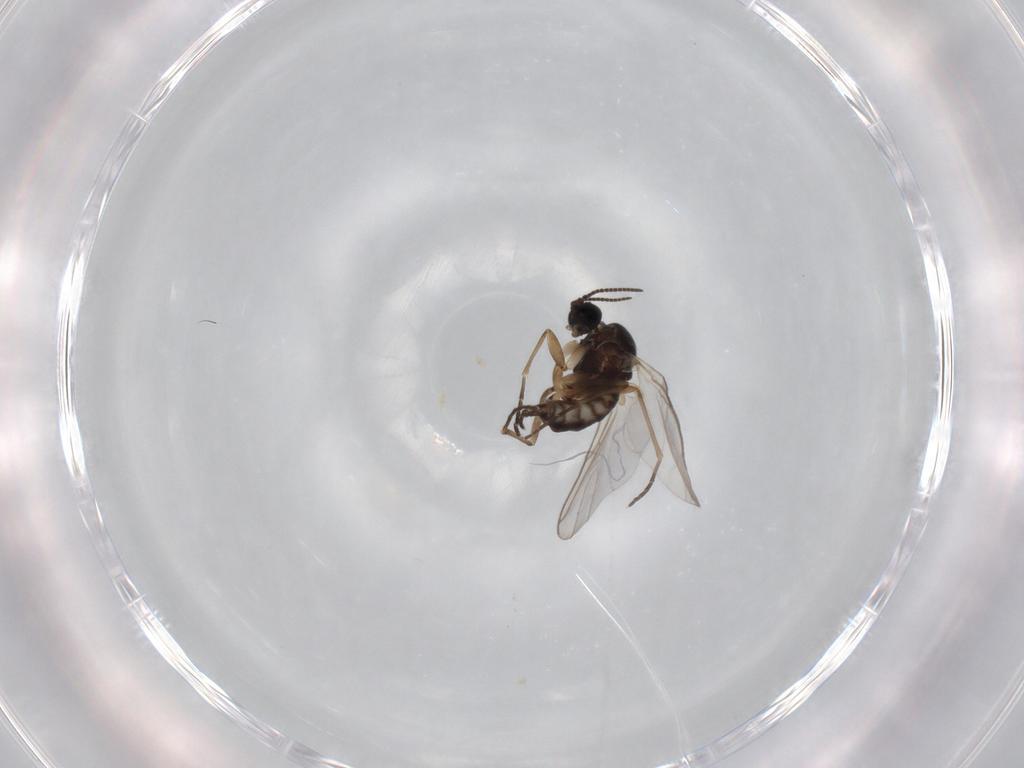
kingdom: Animalia
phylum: Arthropoda
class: Insecta
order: Diptera
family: Sciaridae
